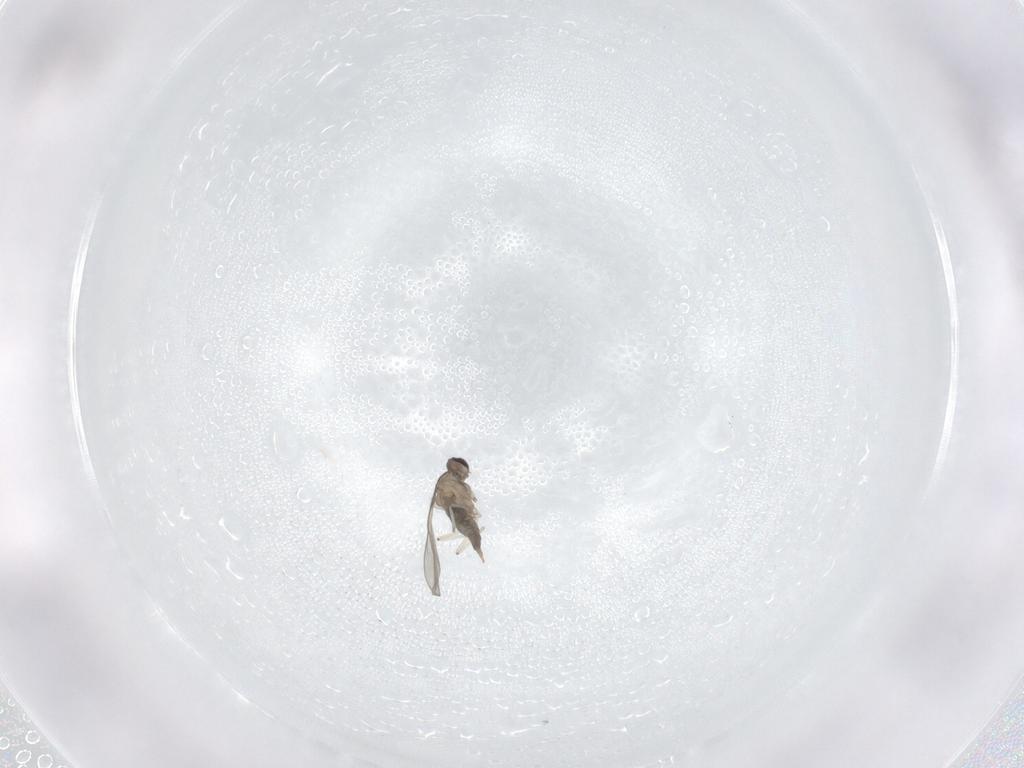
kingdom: Animalia
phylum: Arthropoda
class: Insecta
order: Diptera
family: Cecidomyiidae
